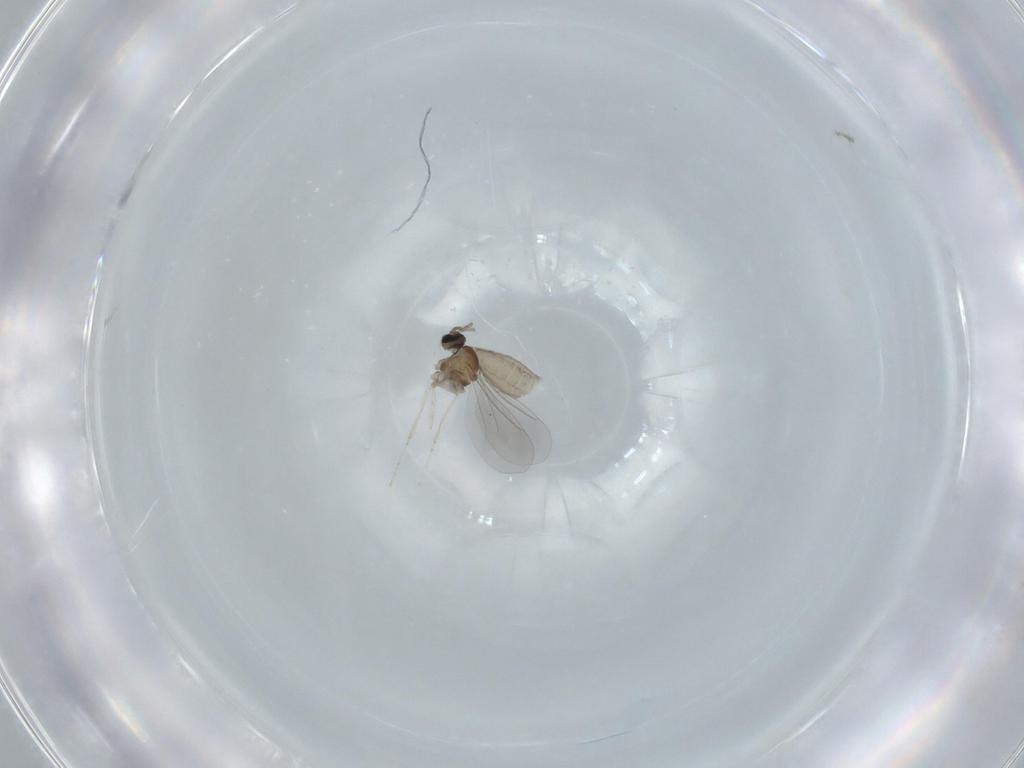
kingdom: Animalia
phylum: Arthropoda
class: Insecta
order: Diptera
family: Cecidomyiidae
